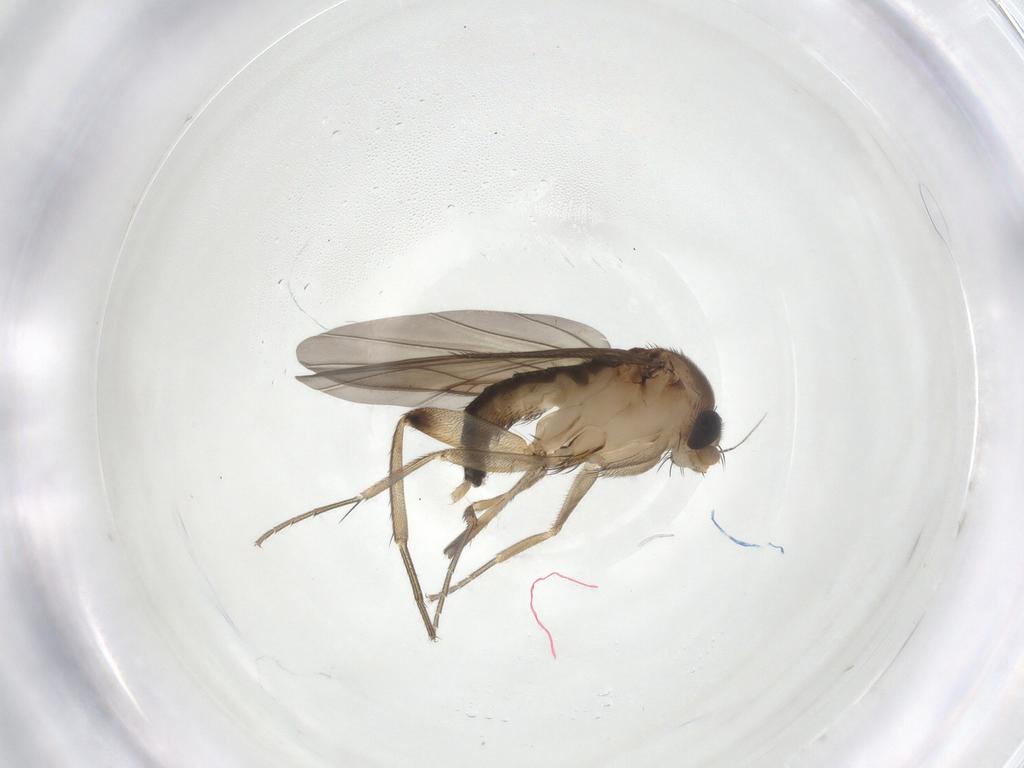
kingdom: Animalia
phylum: Arthropoda
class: Insecta
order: Diptera
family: Phoridae
